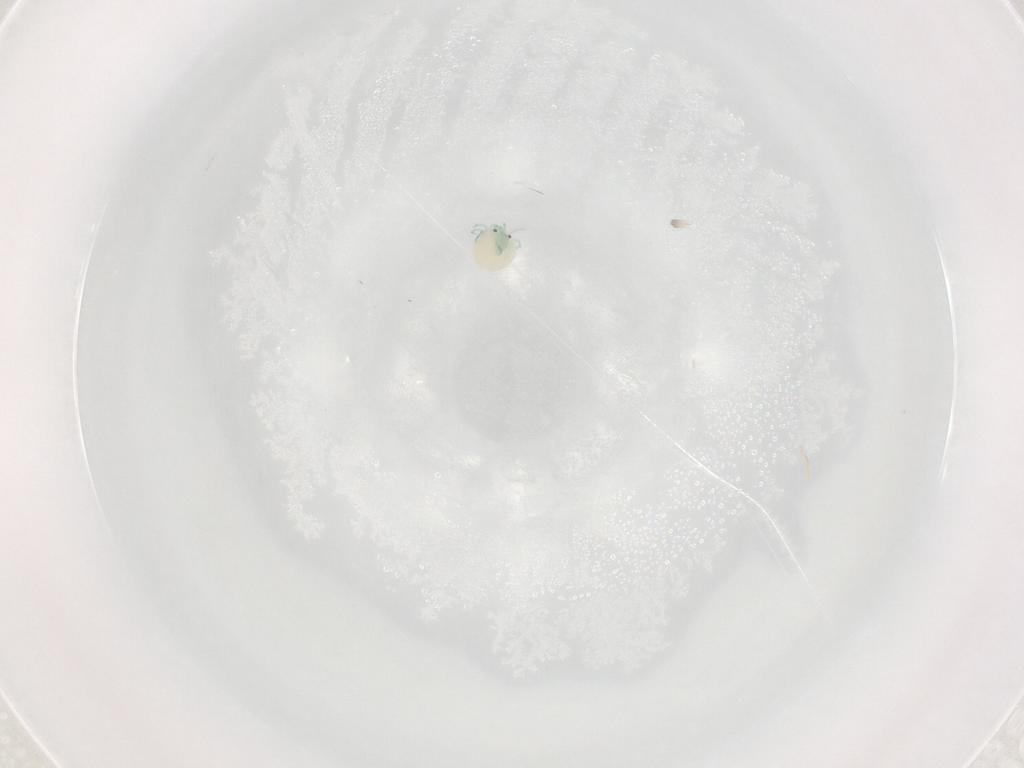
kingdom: Animalia
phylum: Arthropoda
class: Arachnida
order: Trombidiformes
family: Arrenuridae
